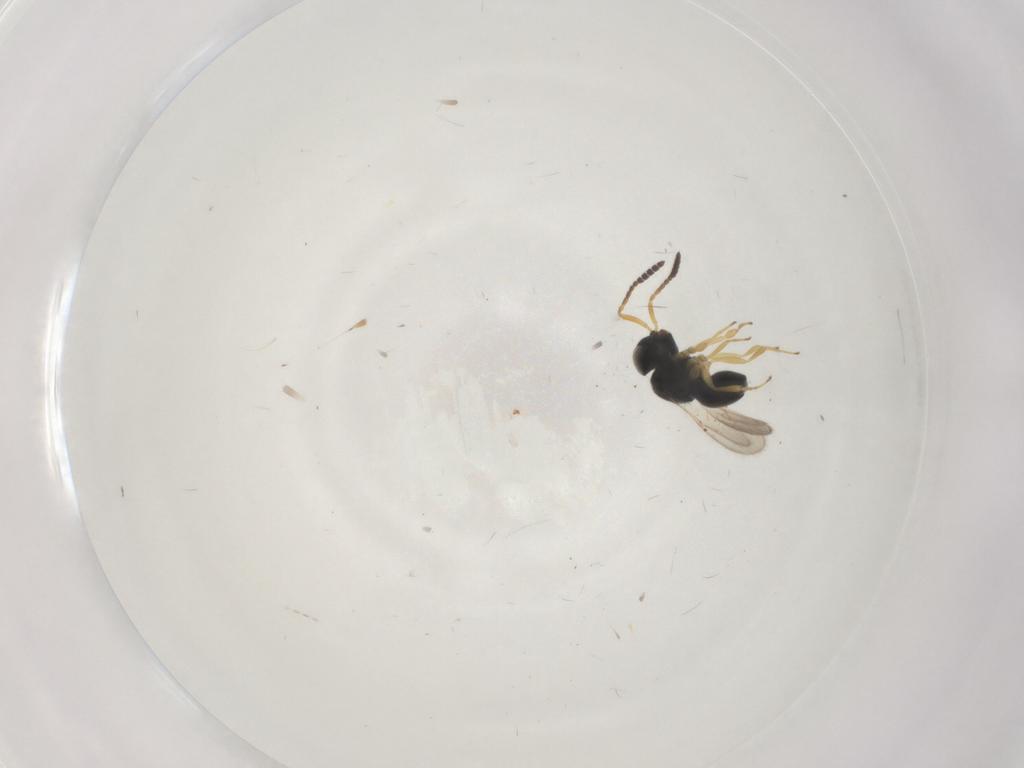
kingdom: Animalia
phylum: Arthropoda
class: Insecta
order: Hymenoptera
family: Scelionidae
